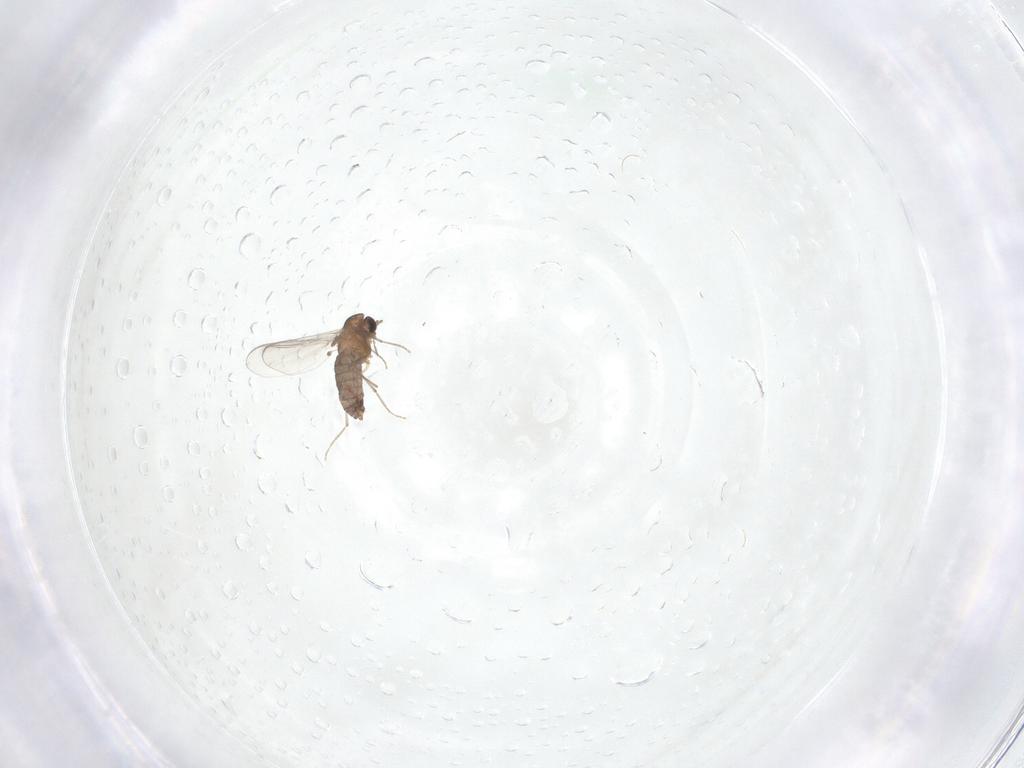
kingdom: Animalia
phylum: Arthropoda
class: Insecta
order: Diptera
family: Chironomidae
